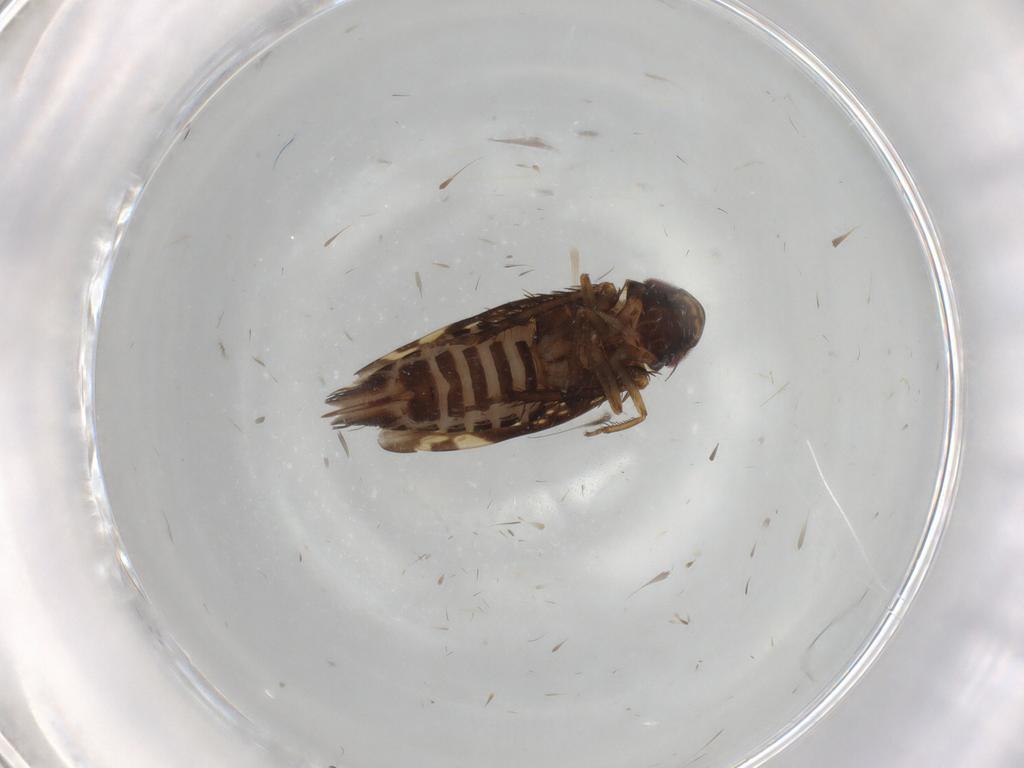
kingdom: Animalia
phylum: Arthropoda
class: Insecta
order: Hemiptera
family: Cicadellidae
